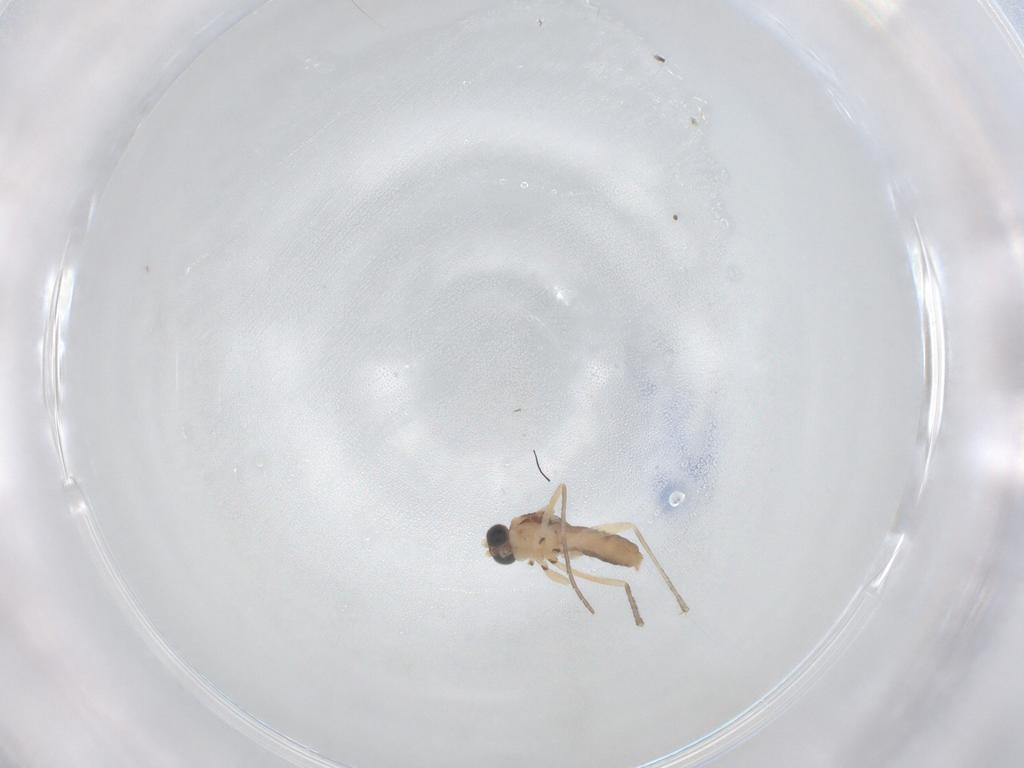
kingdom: Animalia
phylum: Arthropoda
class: Insecta
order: Diptera
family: Sciaridae
